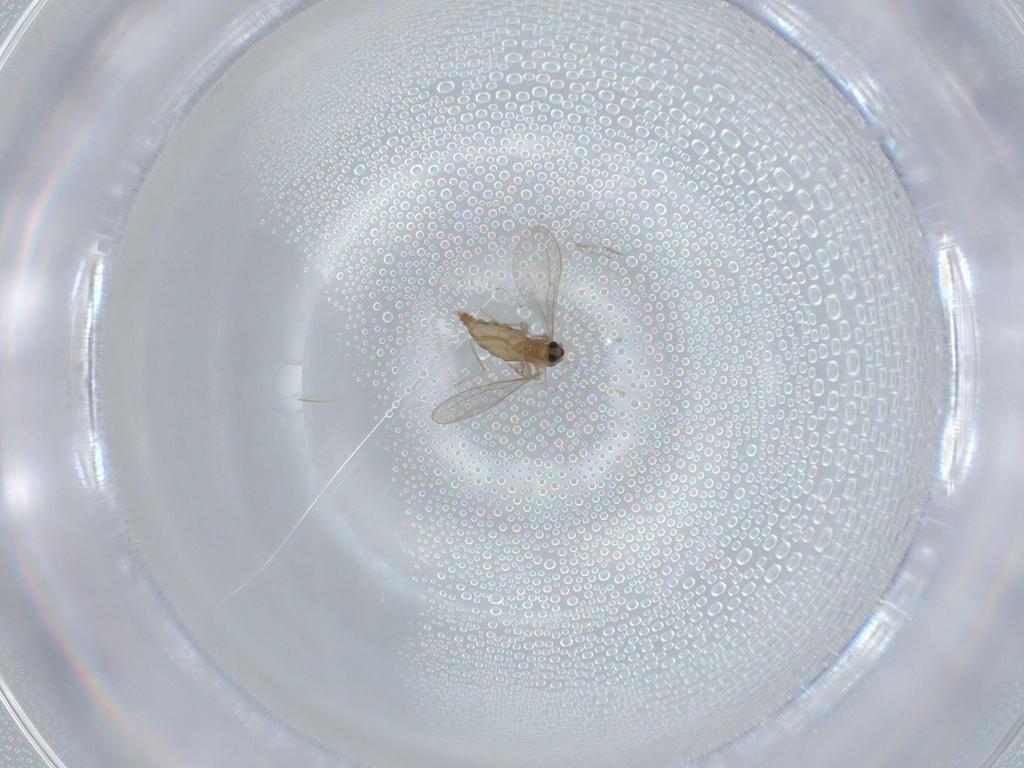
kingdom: Animalia
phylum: Arthropoda
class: Insecta
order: Diptera
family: Cecidomyiidae
